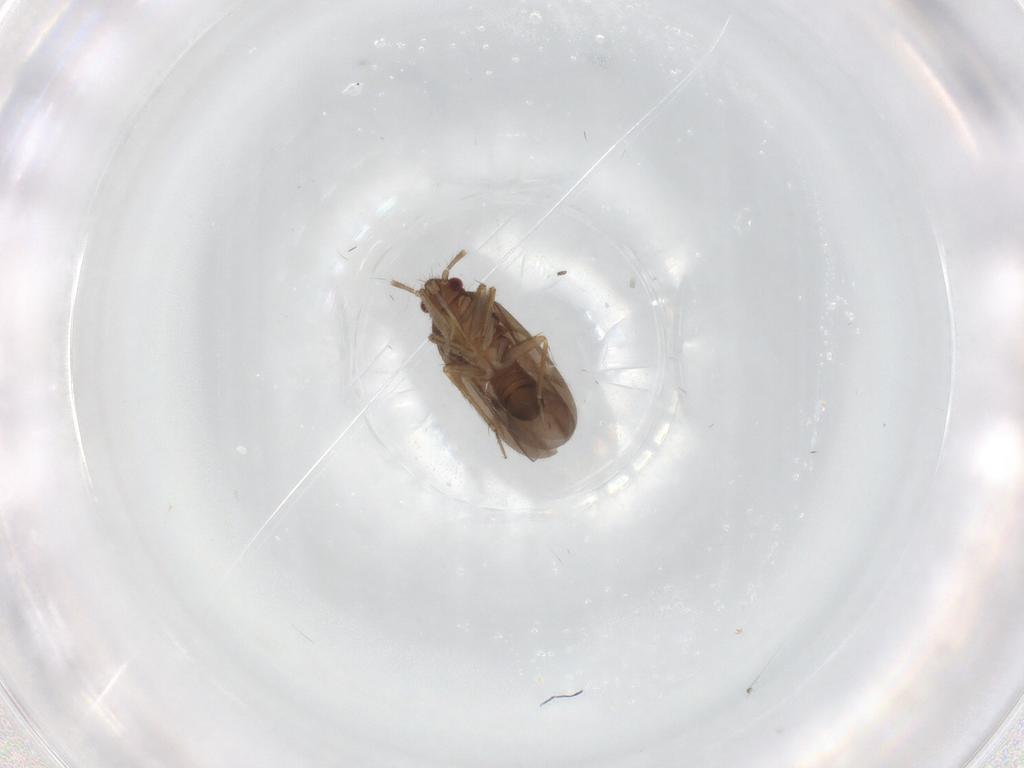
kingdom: Animalia
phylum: Arthropoda
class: Insecta
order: Hemiptera
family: Ceratocombidae
